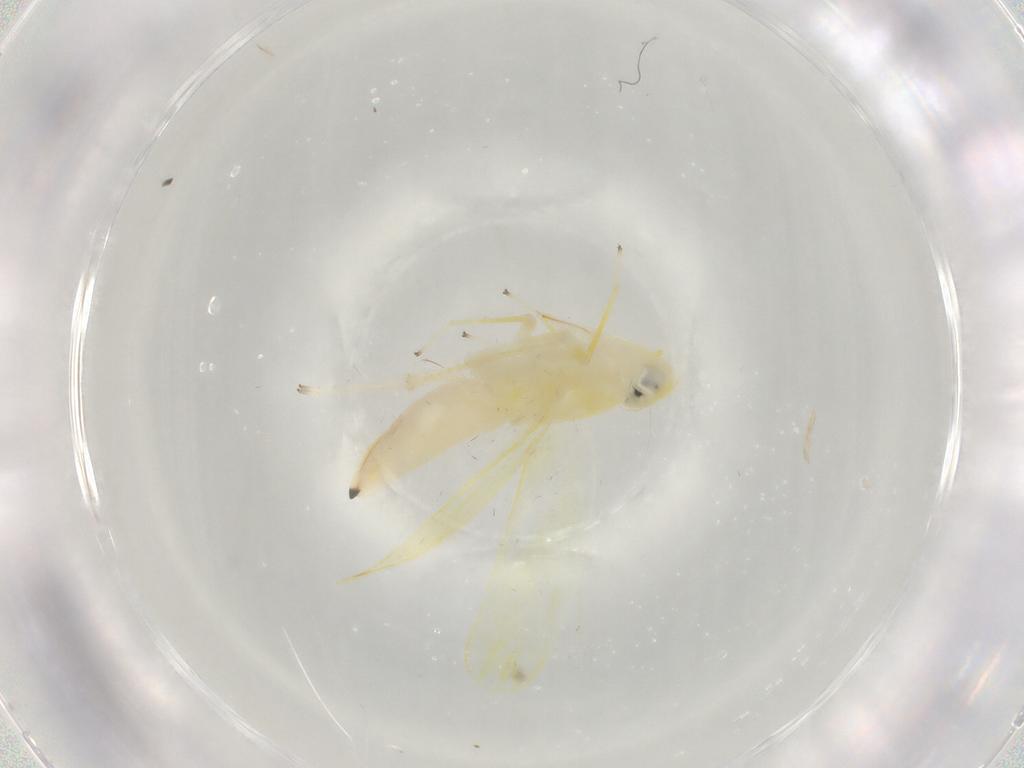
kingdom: Animalia
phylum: Arthropoda
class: Insecta
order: Hemiptera
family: Cicadellidae
